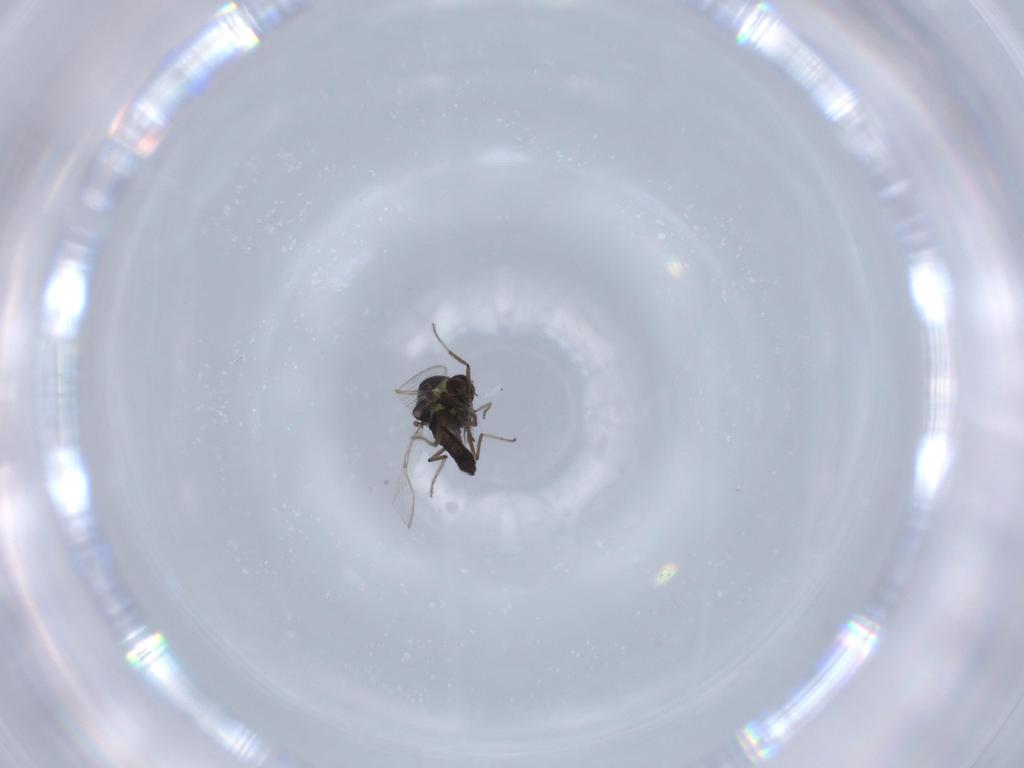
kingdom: Animalia
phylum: Arthropoda
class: Insecta
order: Diptera
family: Ceratopogonidae
